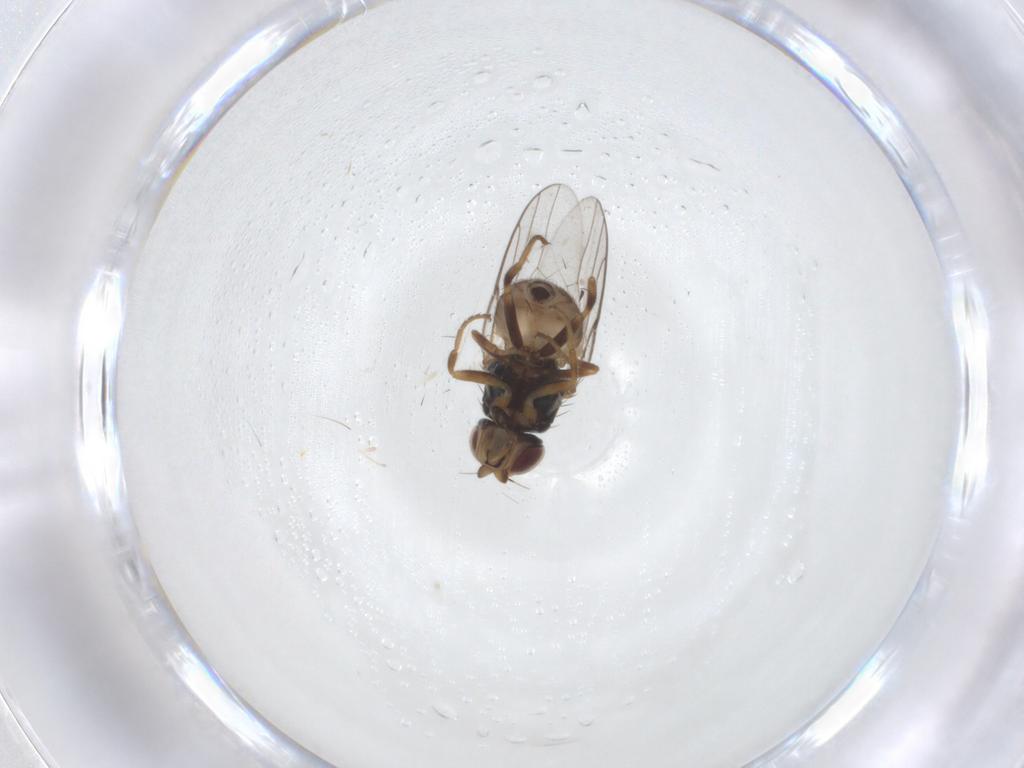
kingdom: Animalia
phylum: Arthropoda
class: Insecta
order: Diptera
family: Chloropidae
